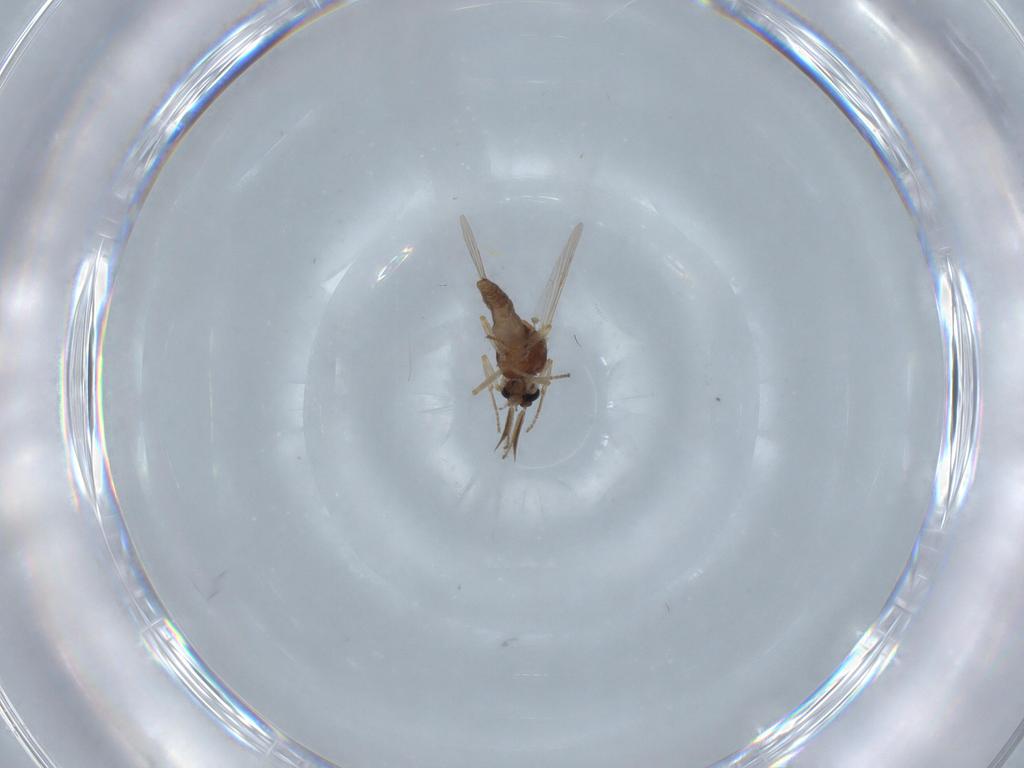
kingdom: Animalia
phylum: Arthropoda
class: Insecta
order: Diptera
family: Ceratopogonidae
